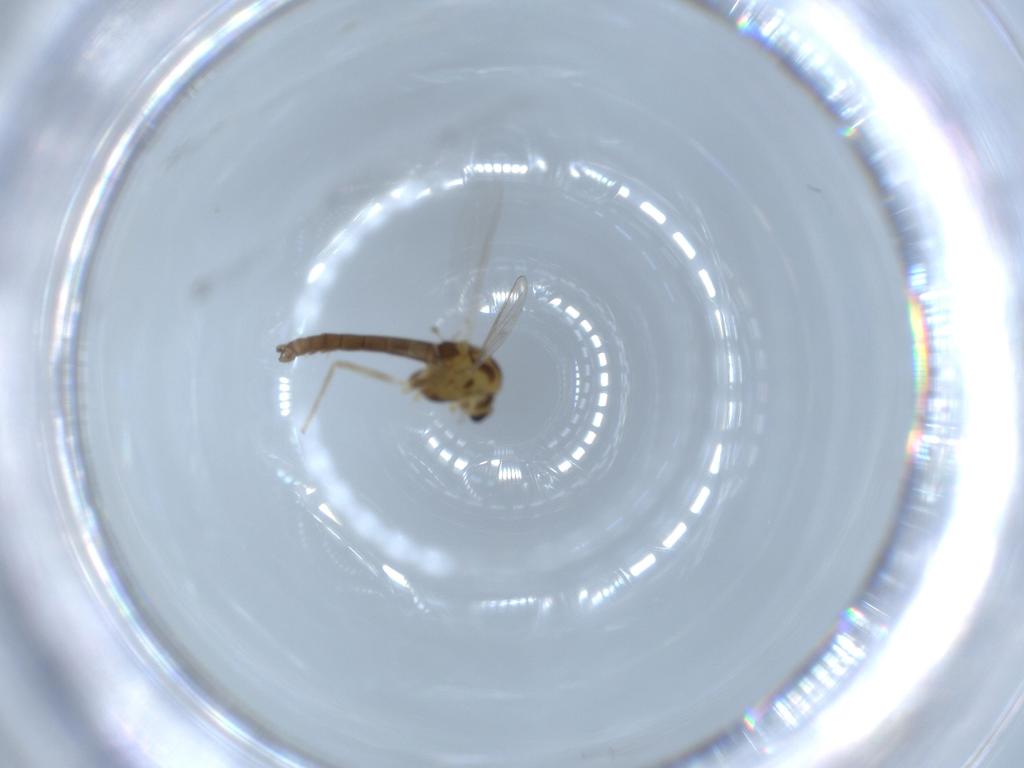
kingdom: Animalia
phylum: Arthropoda
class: Insecta
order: Diptera
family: Chironomidae
